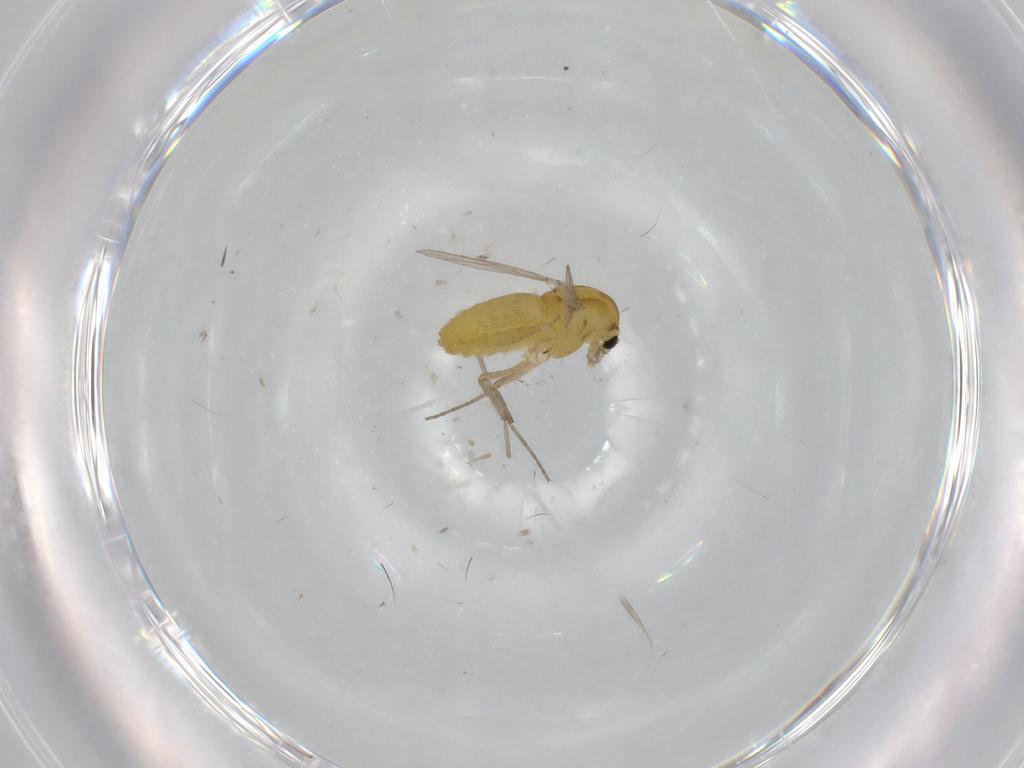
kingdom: Animalia
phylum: Arthropoda
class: Insecta
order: Diptera
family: Chironomidae
